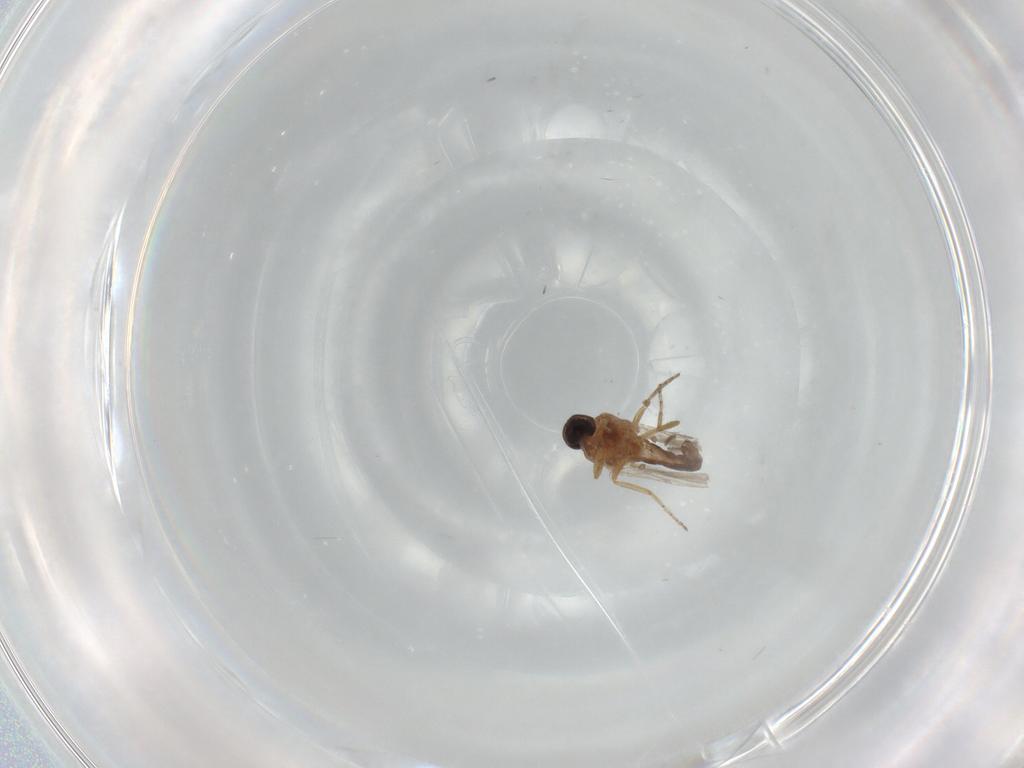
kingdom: Animalia
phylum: Arthropoda
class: Insecta
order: Diptera
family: Ceratopogonidae
